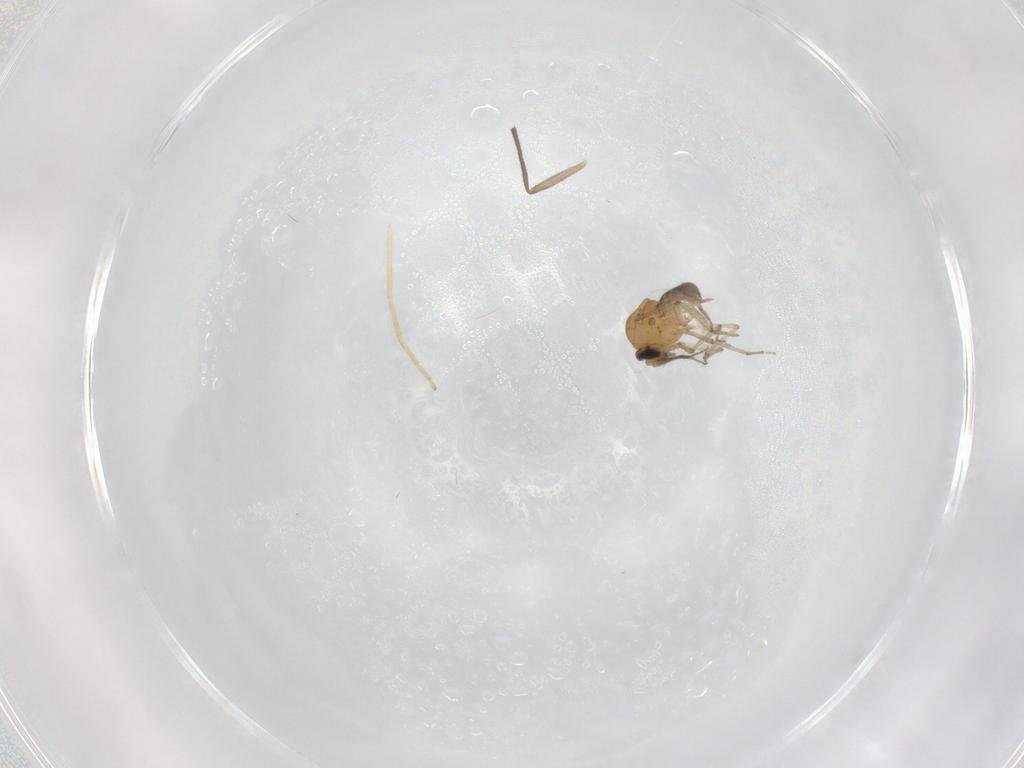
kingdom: Animalia
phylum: Arthropoda
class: Insecta
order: Diptera
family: Ceratopogonidae
